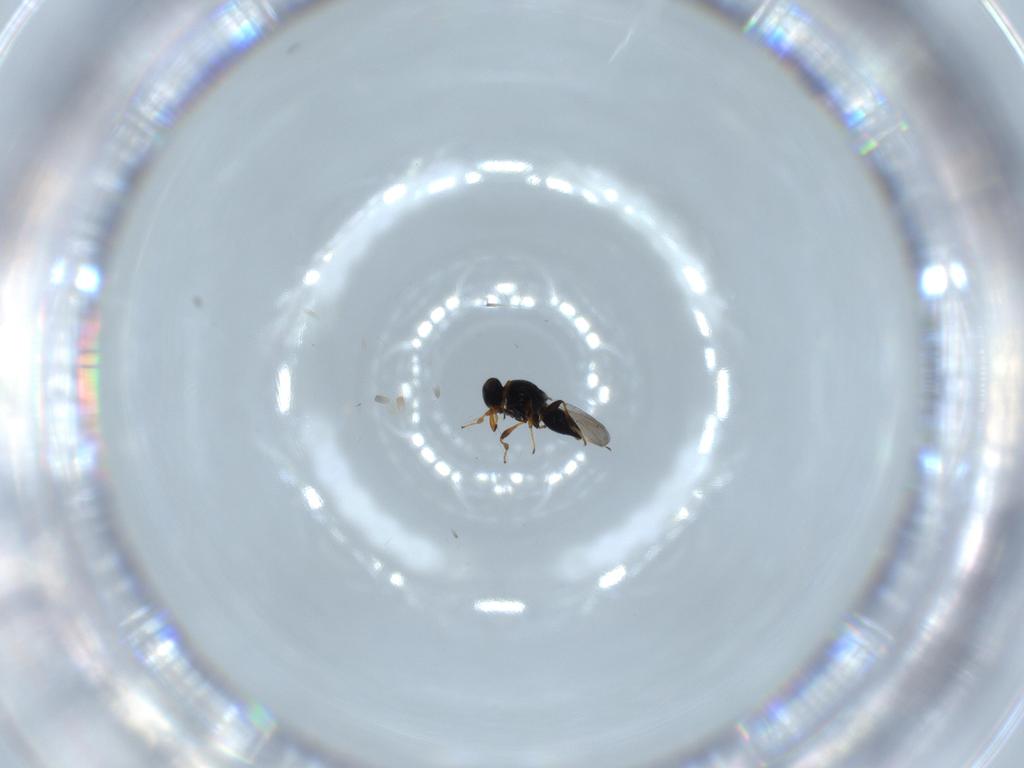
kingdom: Animalia
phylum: Arthropoda
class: Insecta
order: Hymenoptera
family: Platygastridae
